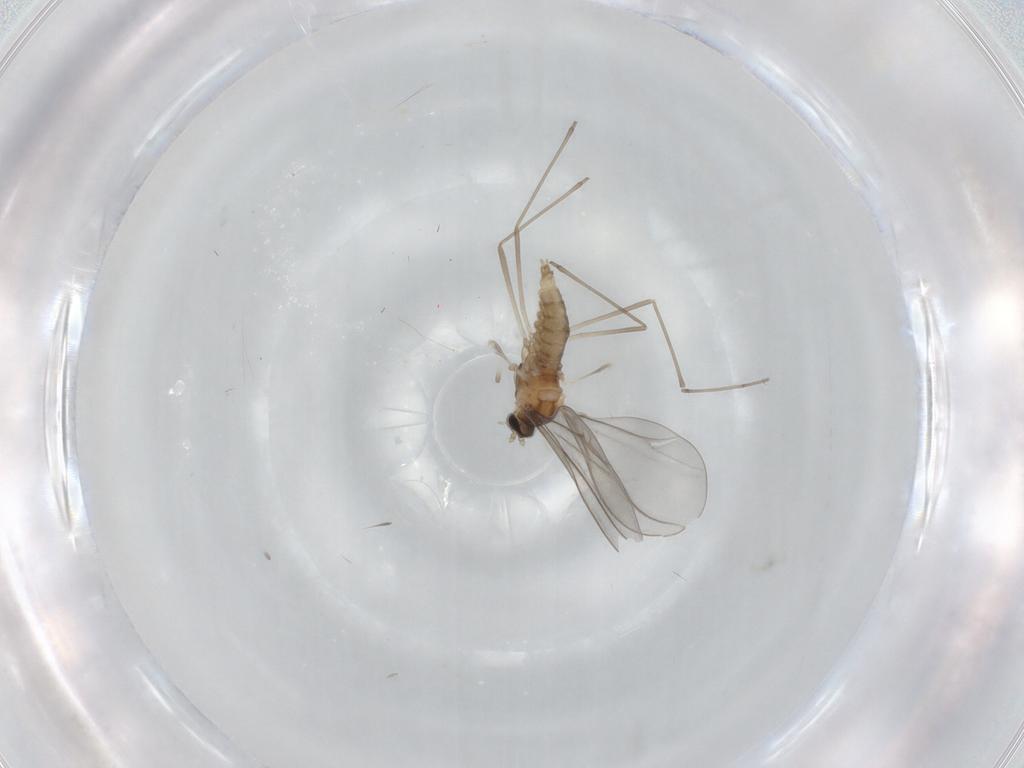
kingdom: Animalia
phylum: Arthropoda
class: Insecta
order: Diptera
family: Cecidomyiidae
